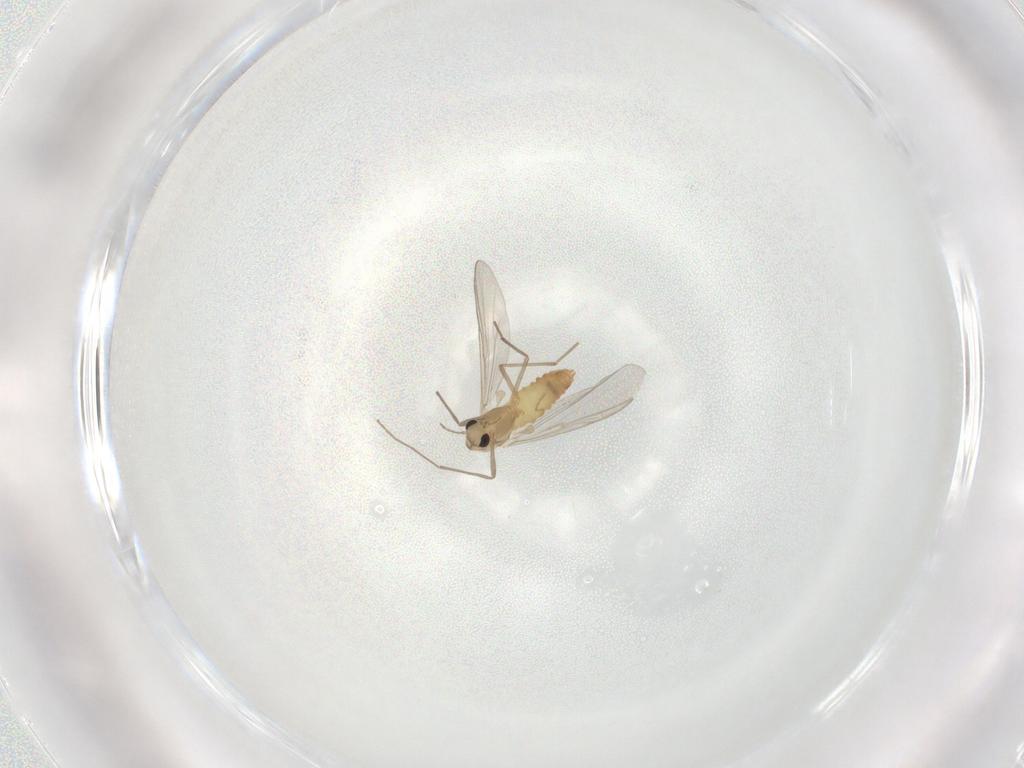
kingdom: Animalia
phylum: Arthropoda
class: Insecta
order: Diptera
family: Chironomidae
